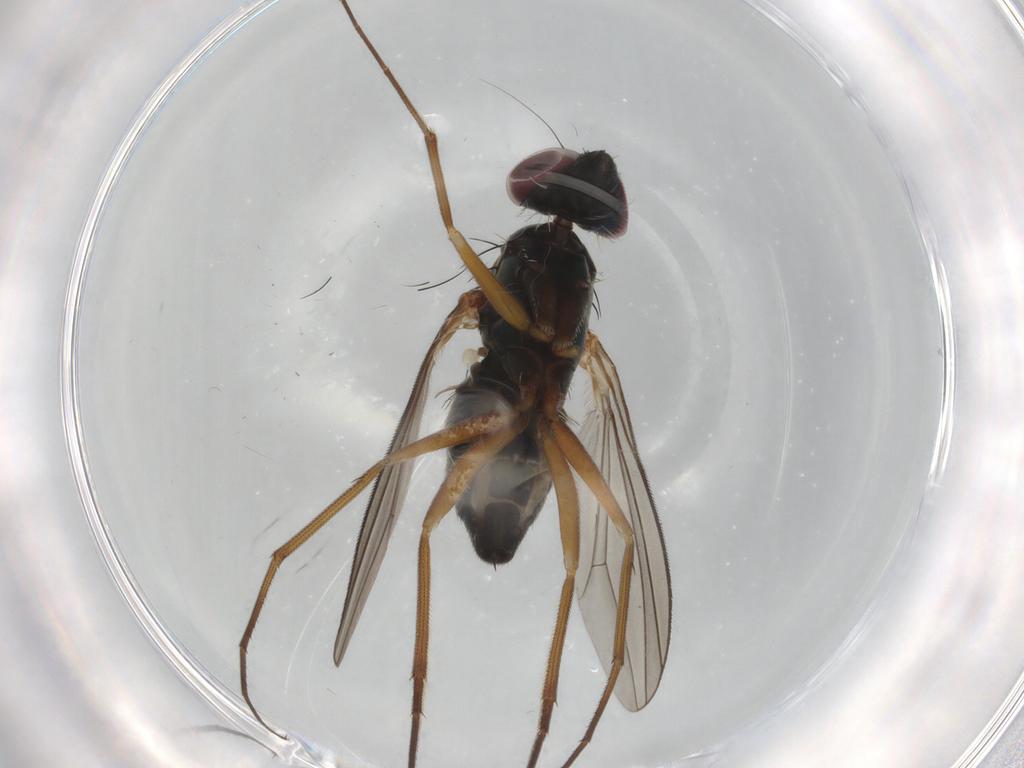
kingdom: Animalia
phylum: Arthropoda
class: Insecta
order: Diptera
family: Dolichopodidae
